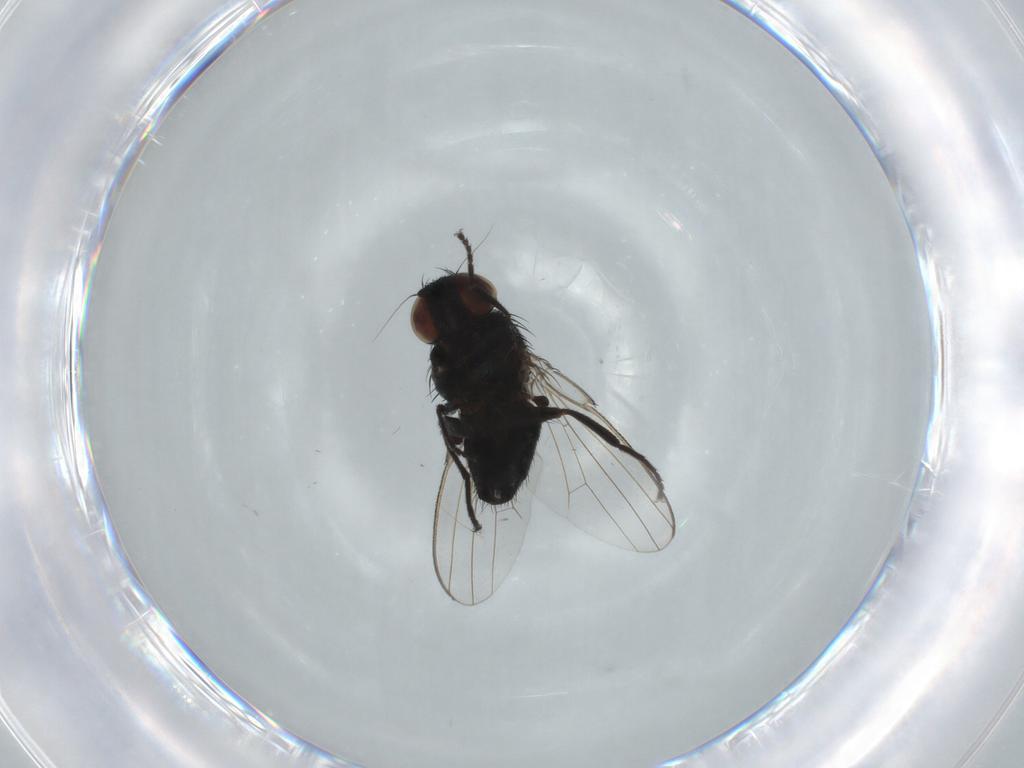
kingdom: Animalia
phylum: Arthropoda
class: Insecta
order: Diptera
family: Milichiidae
